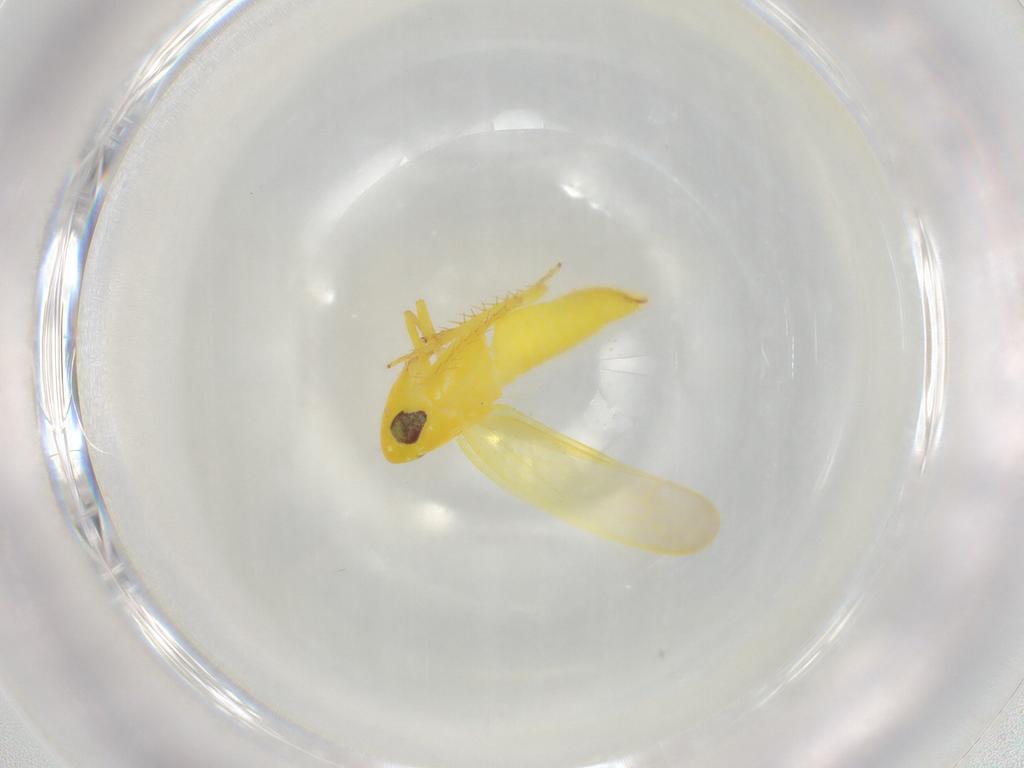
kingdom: Animalia
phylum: Arthropoda
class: Insecta
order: Hemiptera
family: Cicadellidae
